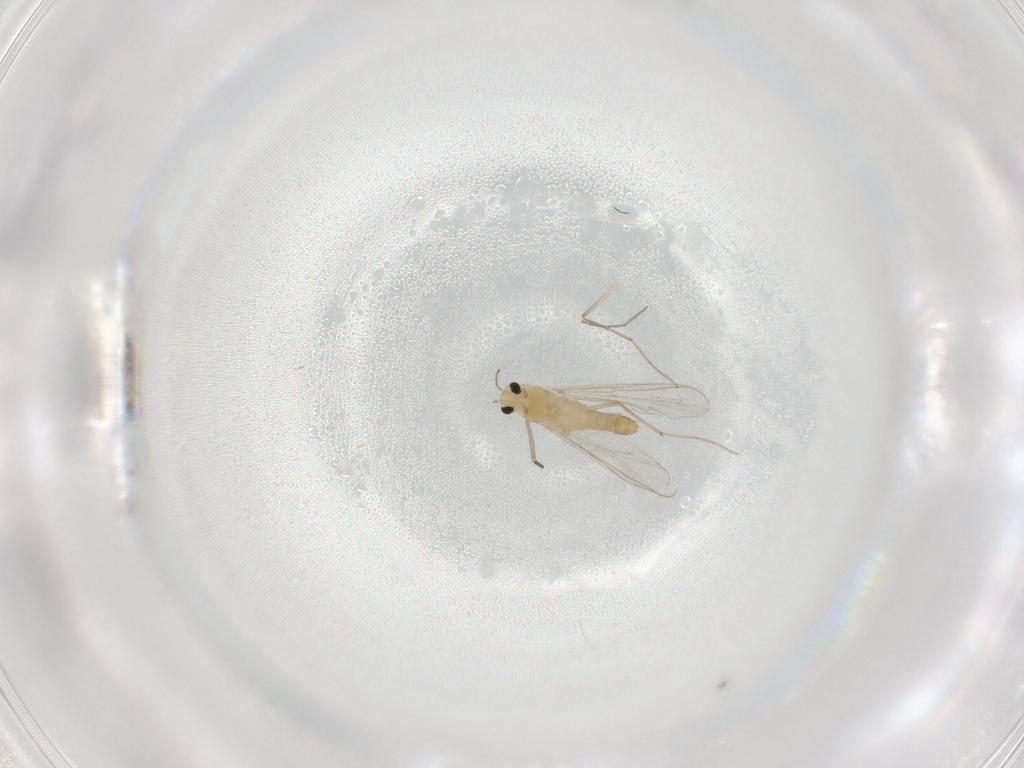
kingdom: Animalia
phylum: Arthropoda
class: Insecta
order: Diptera
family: Chironomidae
